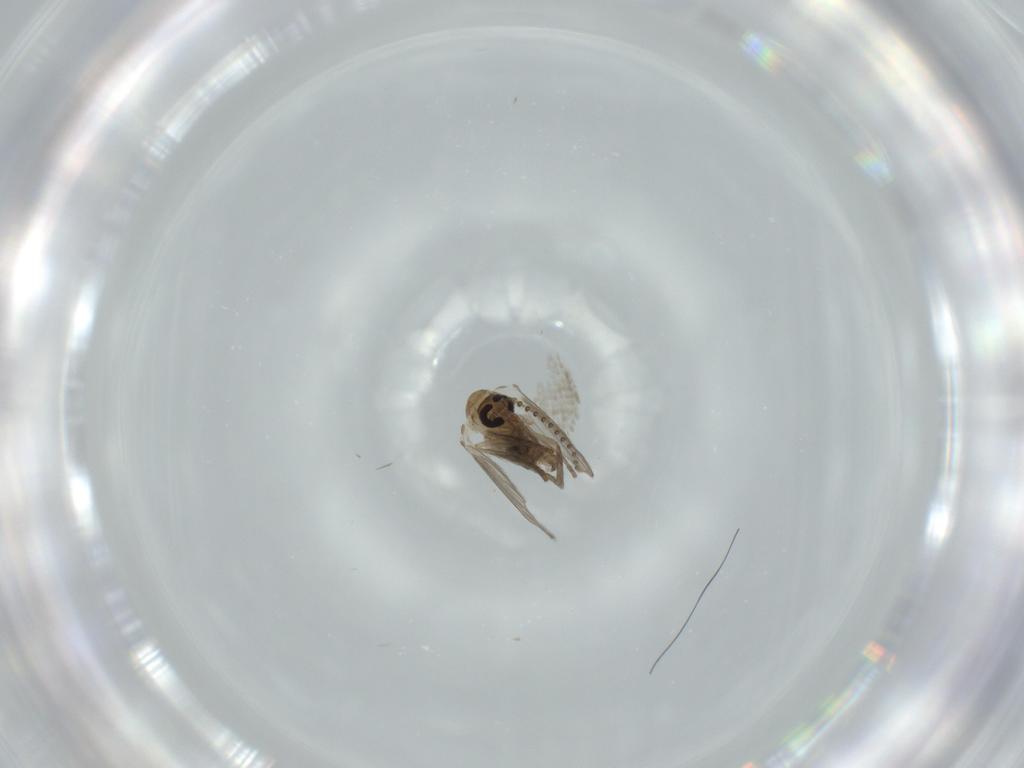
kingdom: Animalia
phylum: Arthropoda
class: Insecta
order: Diptera
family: Psychodidae
